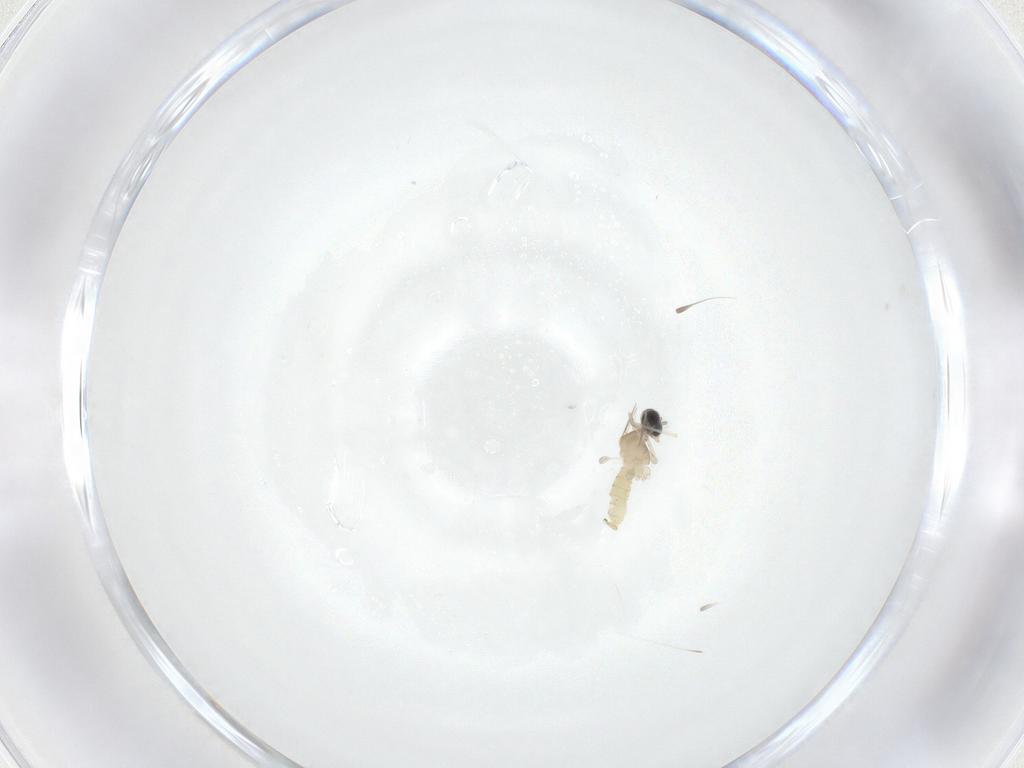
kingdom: Animalia
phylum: Arthropoda
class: Insecta
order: Diptera
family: Cecidomyiidae
